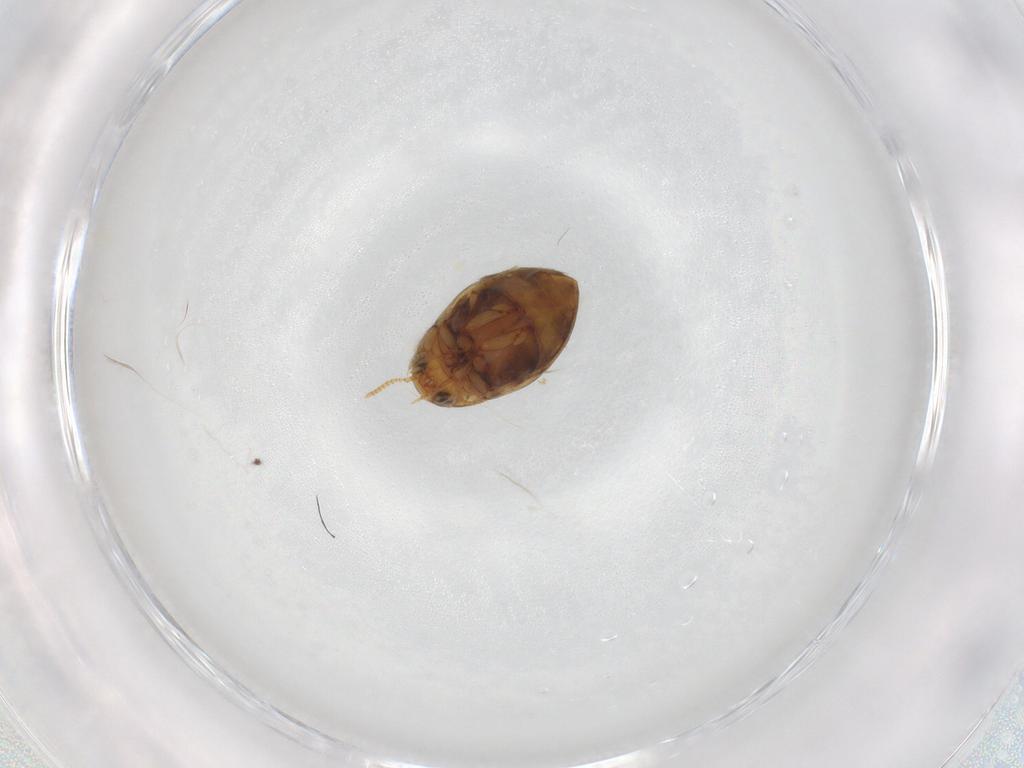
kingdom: Animalia
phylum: Arthropoda
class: Insecta
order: Coleoptera
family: Dytiscidae
